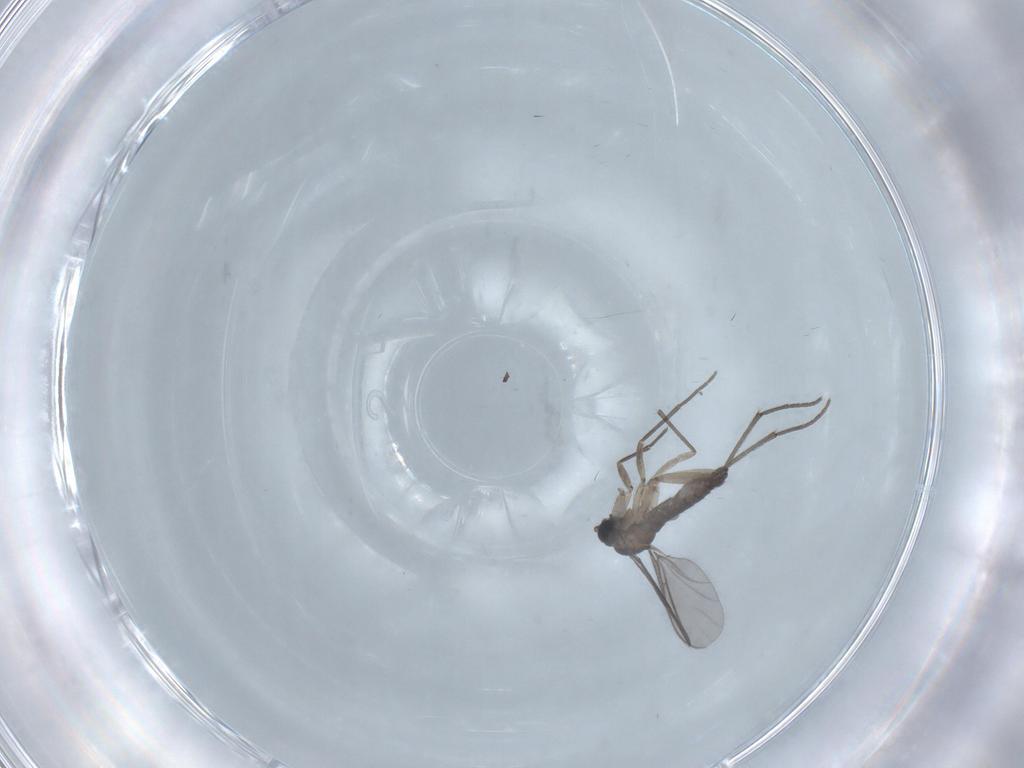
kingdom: Animalia
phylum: Arthropoda
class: Insecta
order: Diptera
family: Sciaridae
